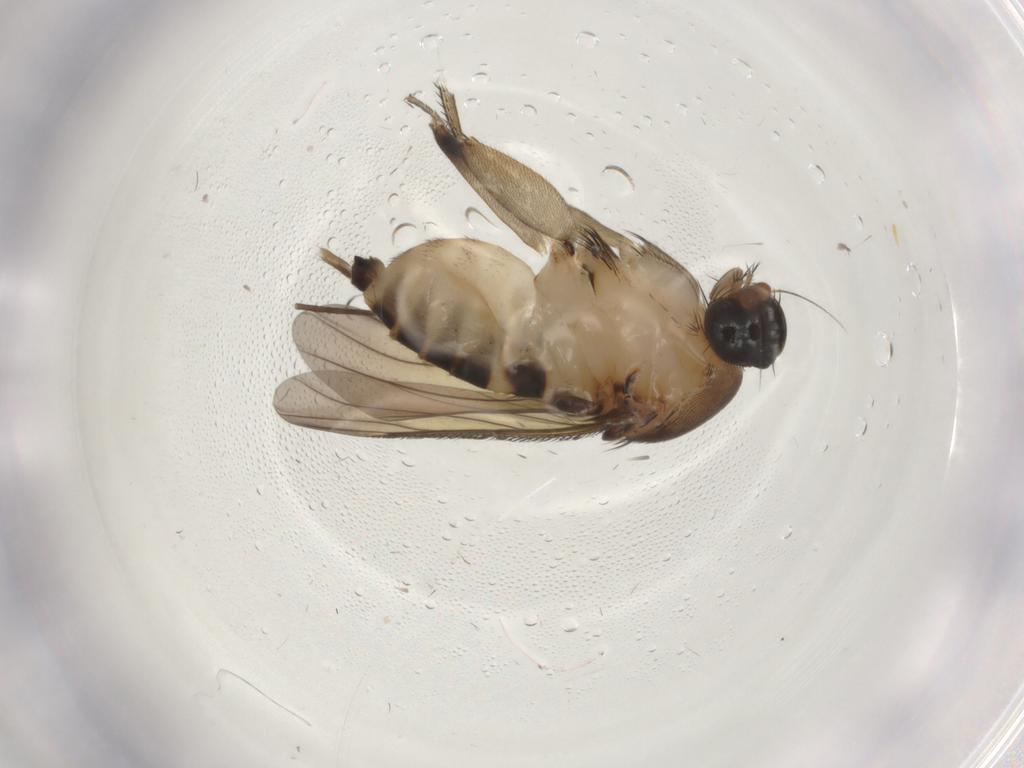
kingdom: Animalia
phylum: Arthropoda
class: Insecta
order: Diptera
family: Phoridae
